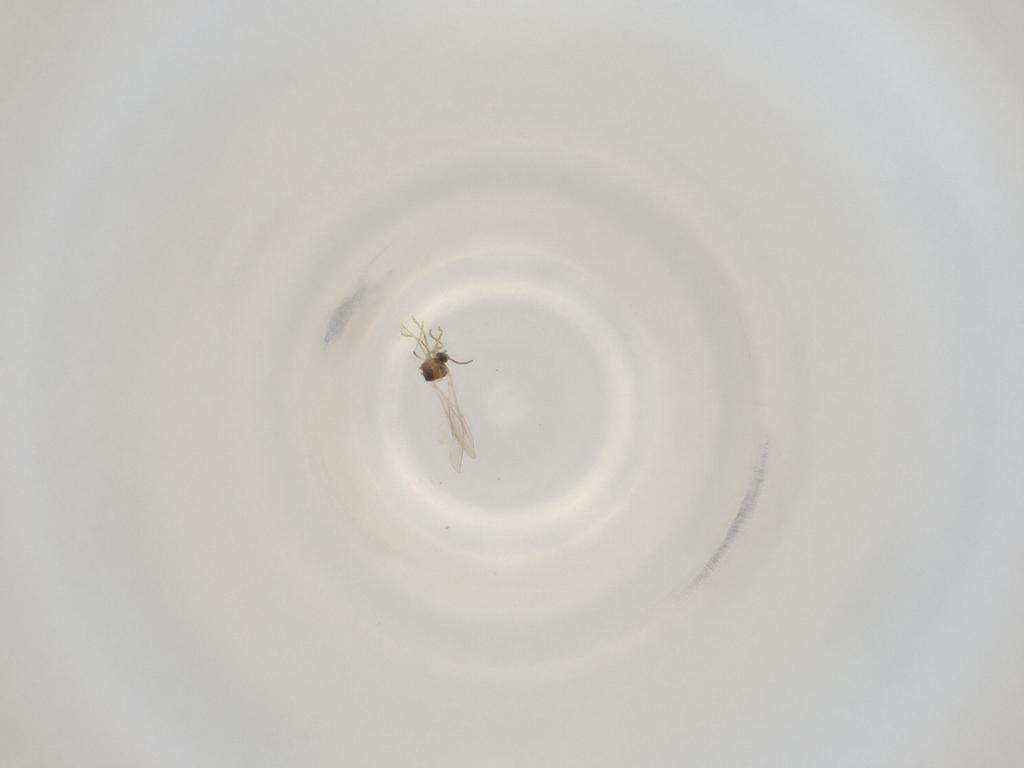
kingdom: Animalia
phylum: Arthropoda
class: Insecta
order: Diptera
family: Cecidomyiidae
